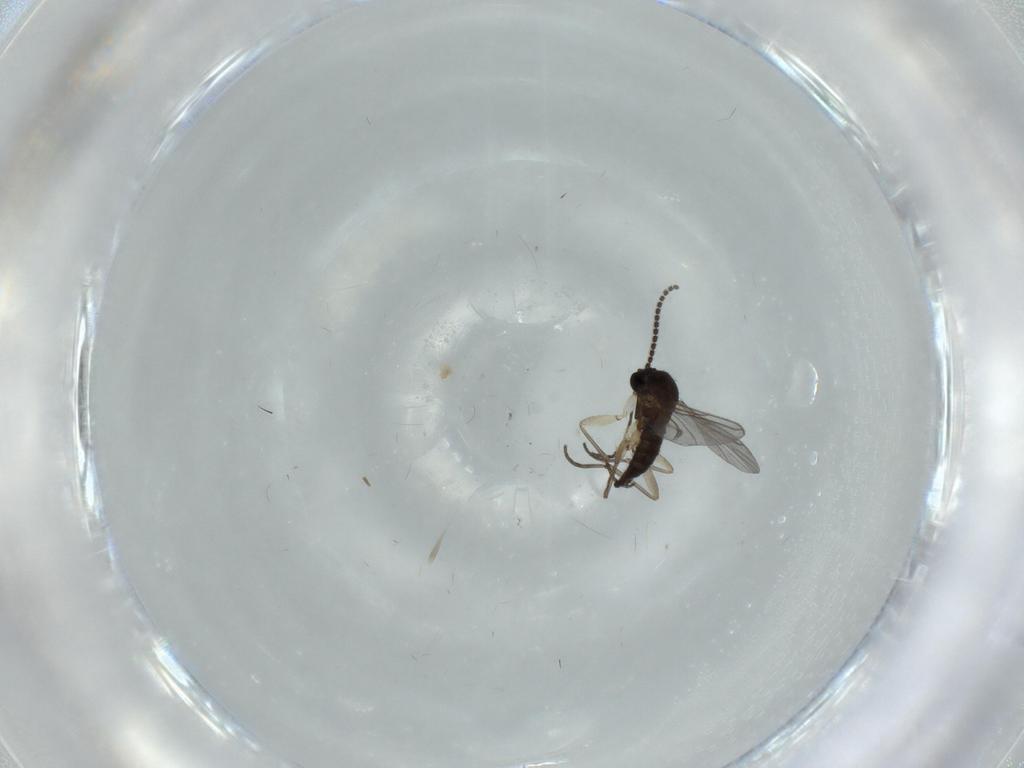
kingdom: Animalia
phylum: Arthropoda
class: Insecta
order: Diptera
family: Sciaridae
